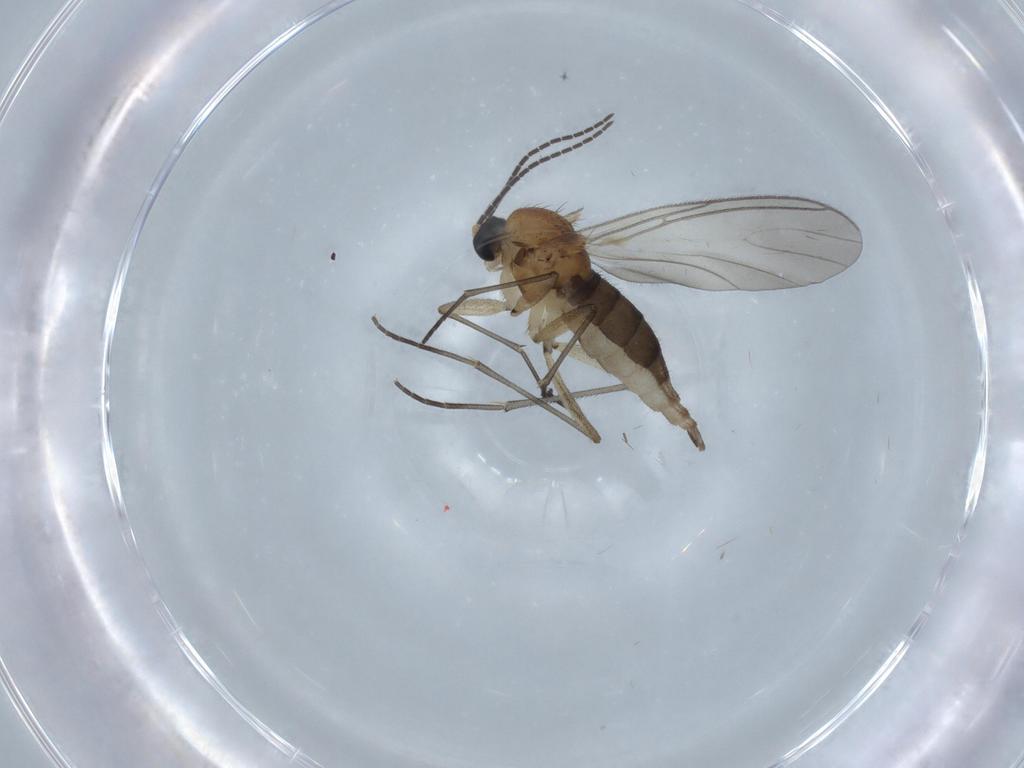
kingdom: Animalia
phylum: Arthropoda
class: Insecta
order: Diptera
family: Sciaridae
